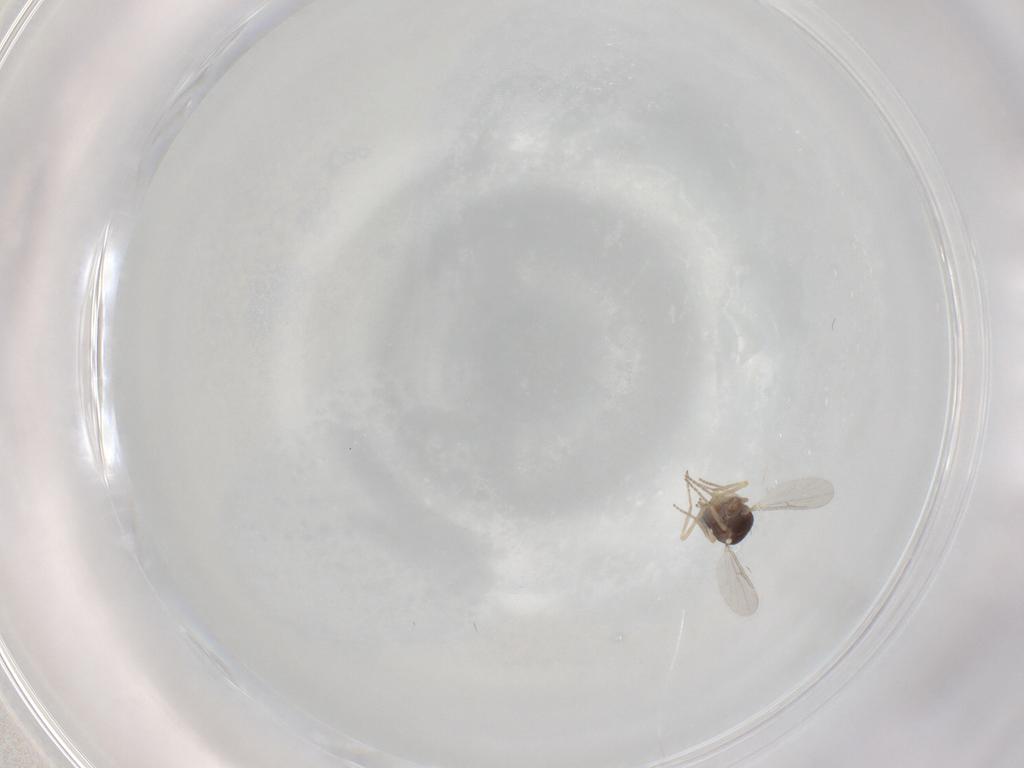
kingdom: Animalia
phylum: Arthropoda
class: Insecta
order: Diptera
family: Ceratopogonidae
